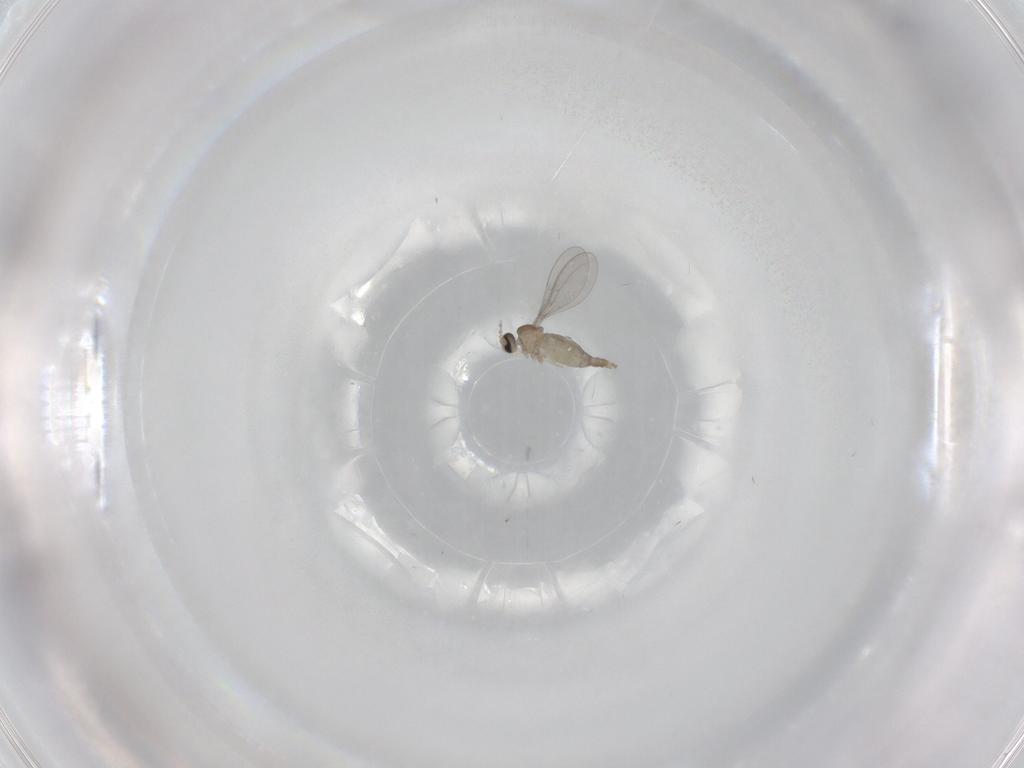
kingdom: Animalia
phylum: Arthropoda
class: Insecta
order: Diptera
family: Cecidomyiidae
